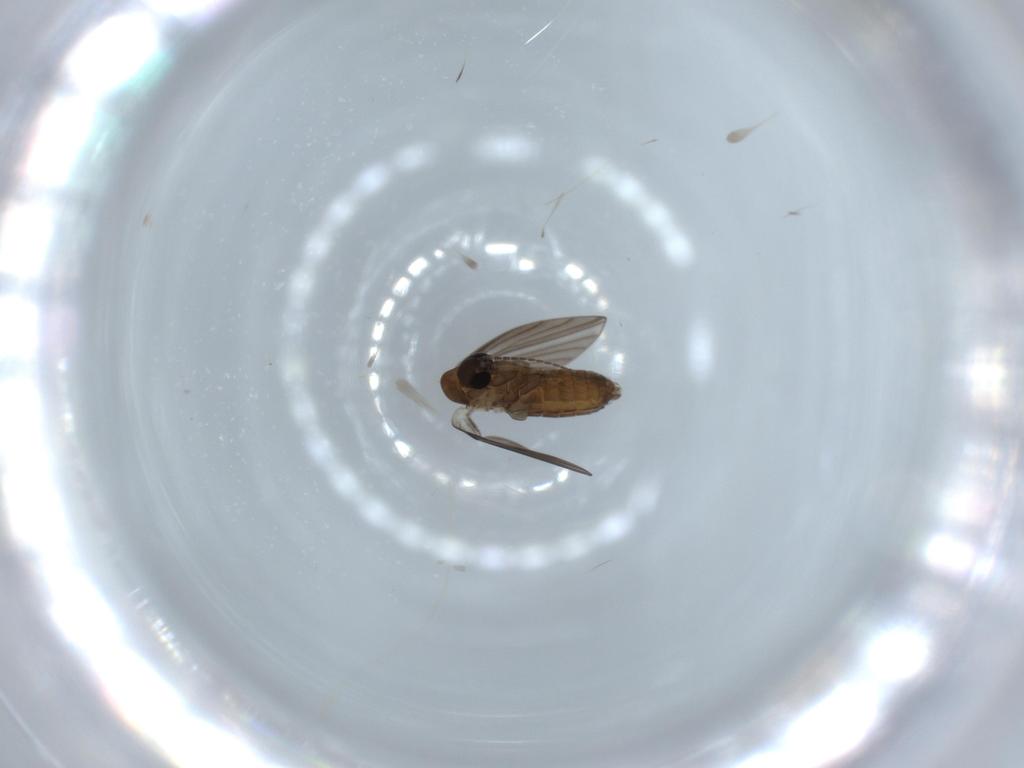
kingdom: Animalia
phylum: Arthropoda
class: Insecta
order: Diptera
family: Psychodidae
